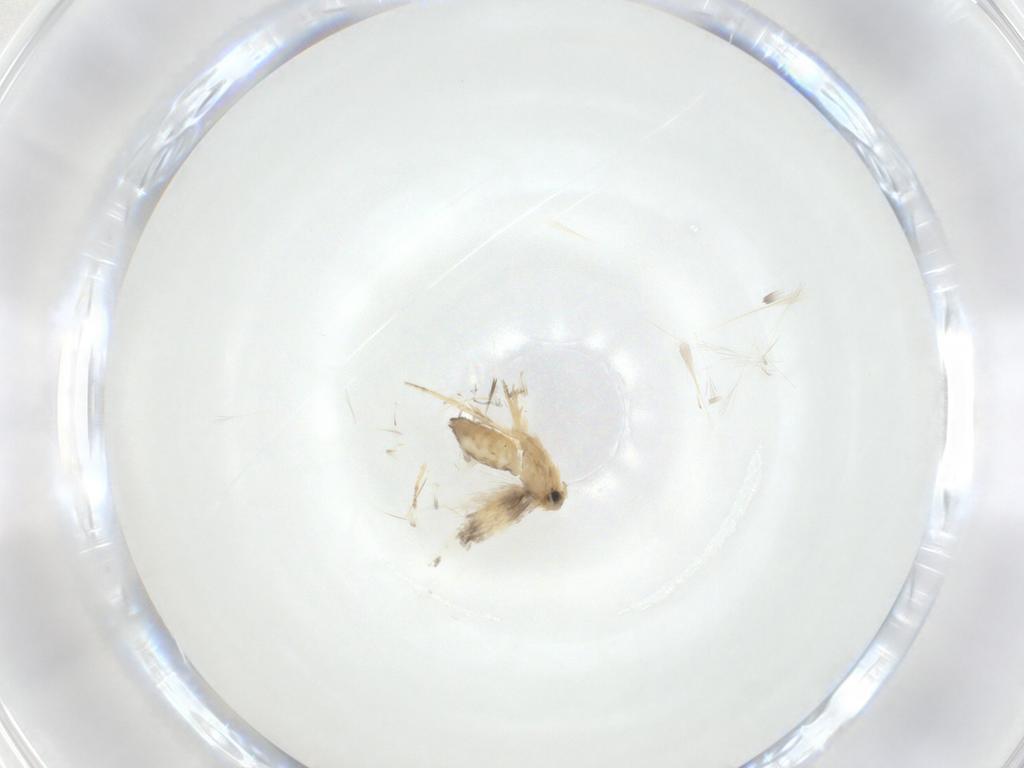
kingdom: Animalia
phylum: Arthropoda
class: Insecta
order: Lepidoptera
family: Nepticulidae
